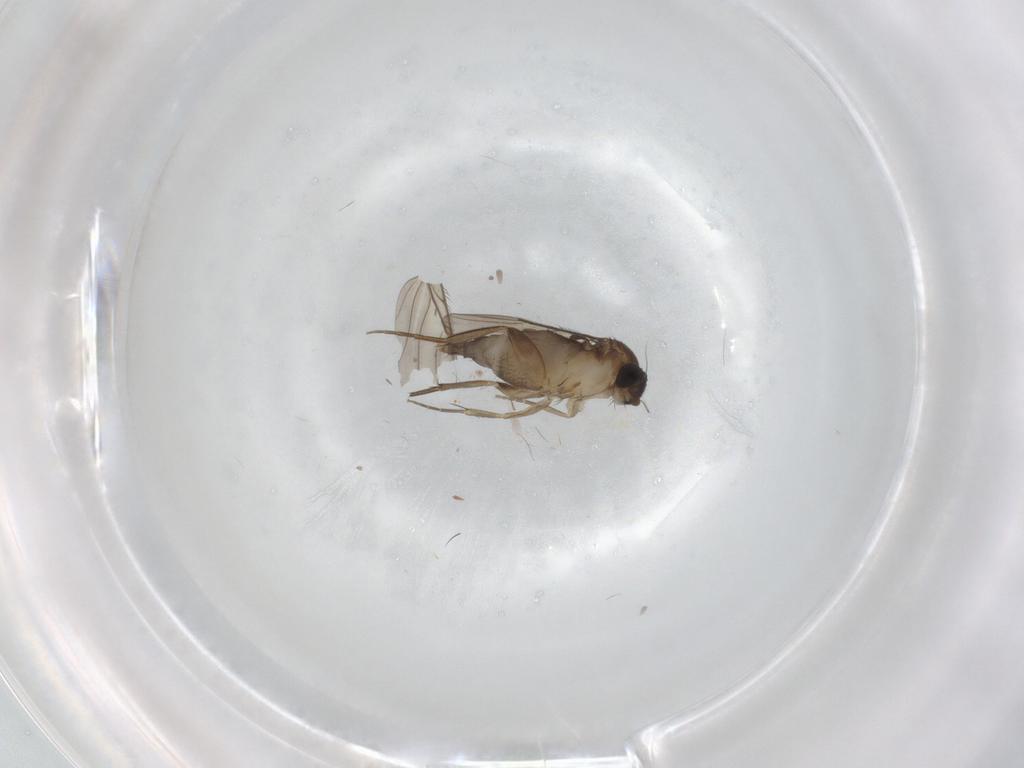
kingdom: Animalia
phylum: Arthropoda
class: Insecta
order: Diptera
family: Phoridae
